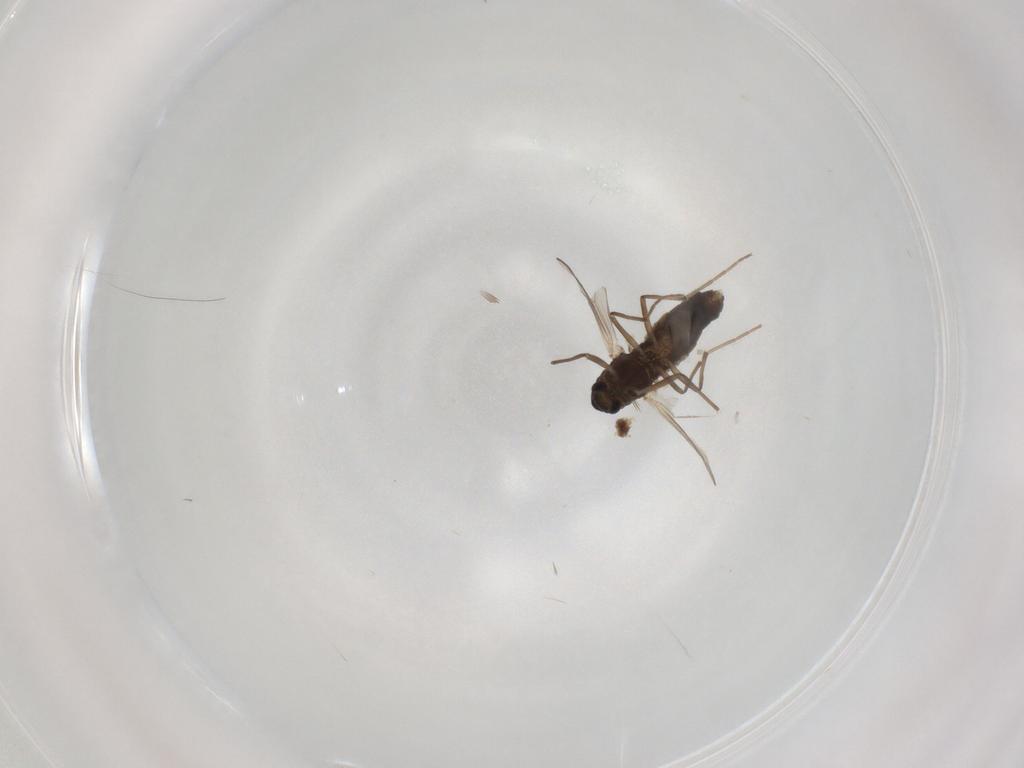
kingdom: Animalia
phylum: Arthropoda
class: Insecta
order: Diptera
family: Chironomidae
